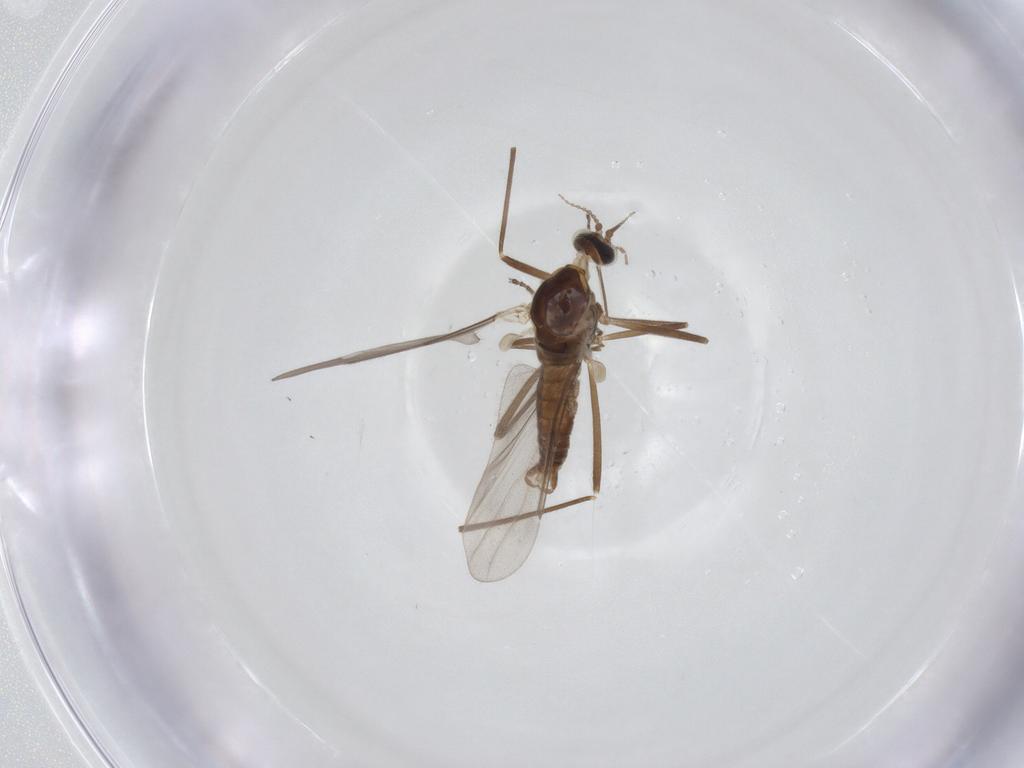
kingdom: Animalia
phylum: Arthropoda
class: Insecta
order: Diptera
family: Cecidomyiidae
